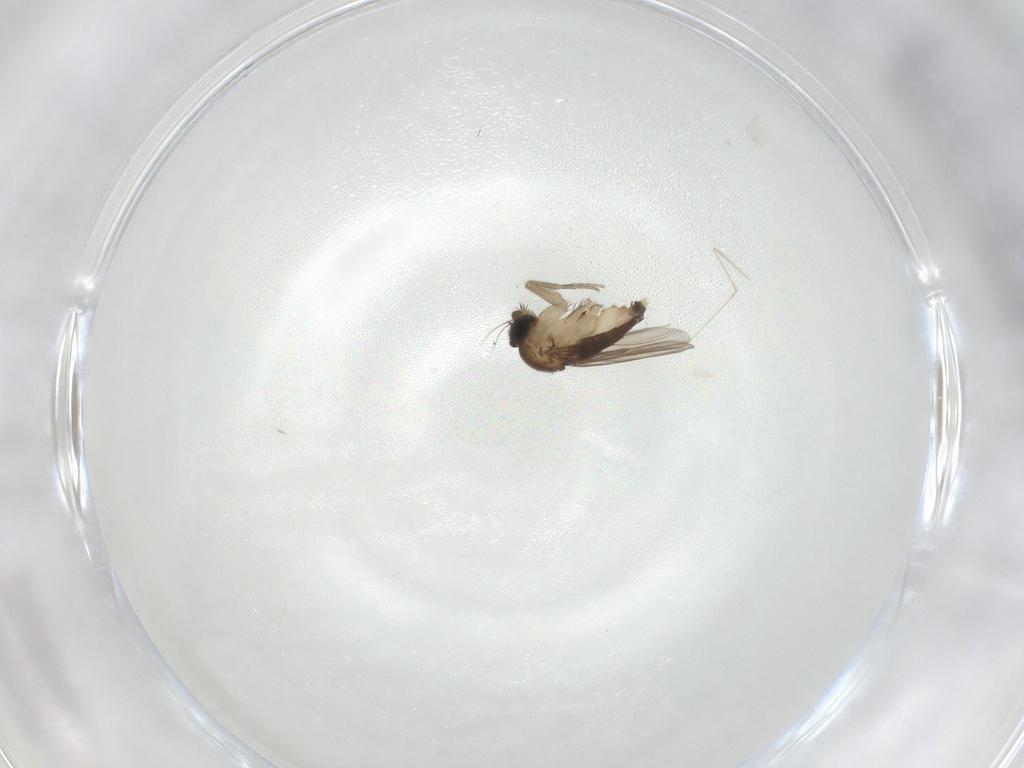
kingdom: Animalia
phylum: Arthropoda
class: Insecta
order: Diptera
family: Phoridae
